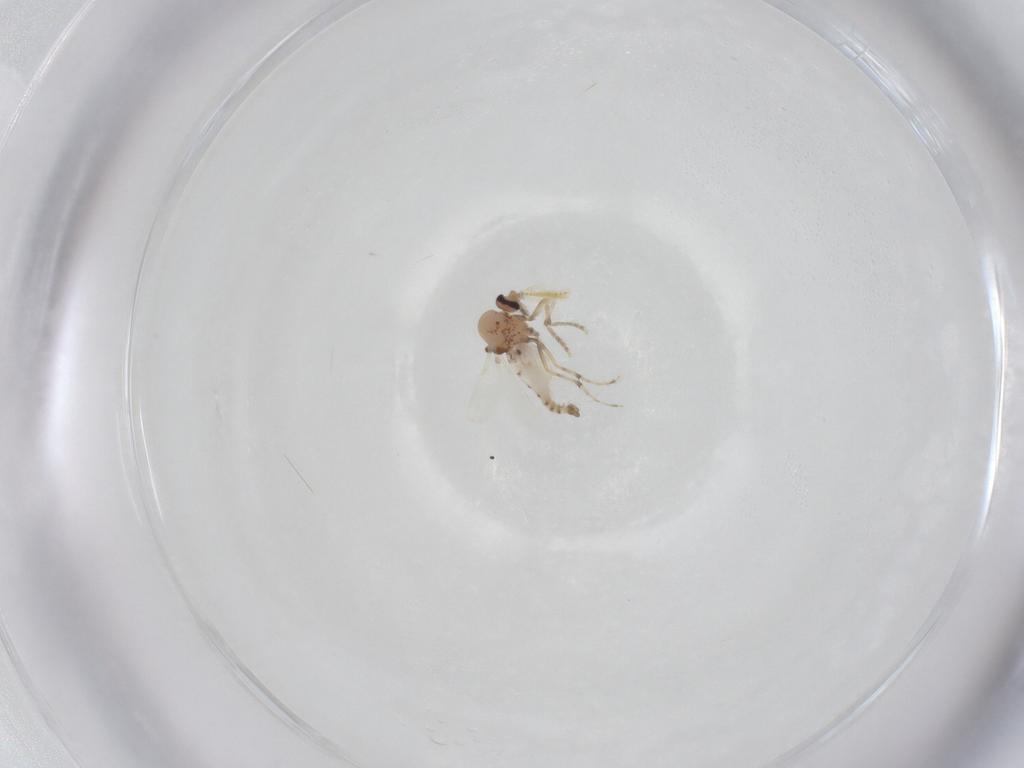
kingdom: Animalia
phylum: Arthropoda
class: Insecta
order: Diptera
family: Ceratopogonidae
